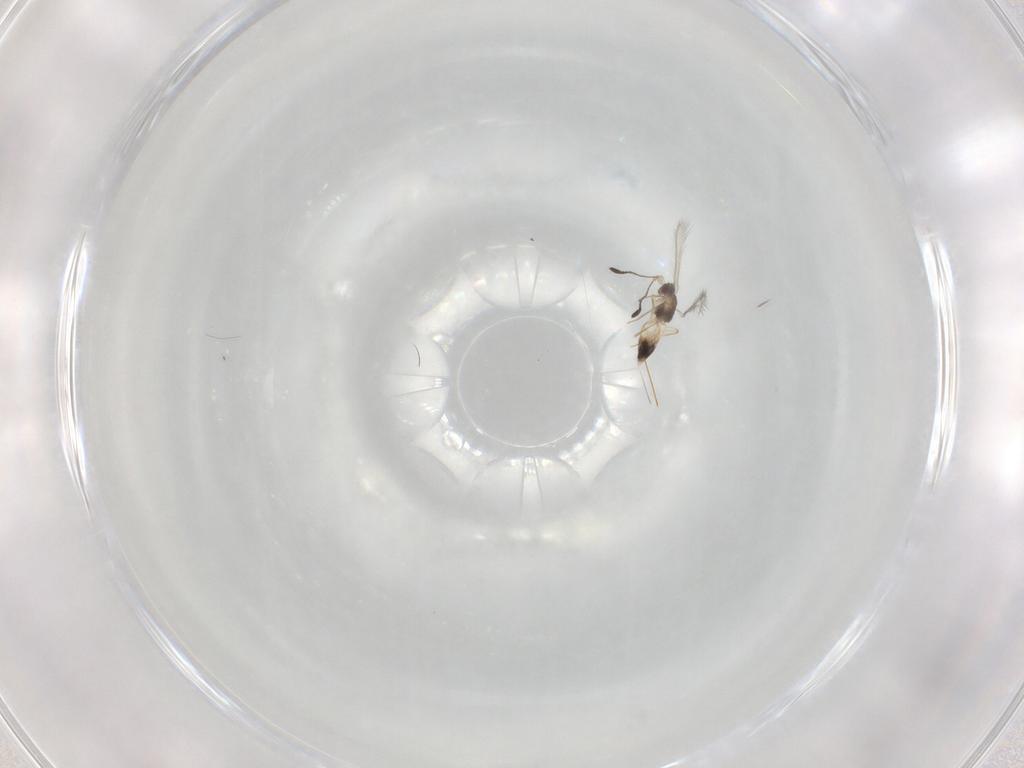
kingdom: Animalia
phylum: Arthropoda
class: Insecta
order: Hymenoptera
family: Mymaridae
